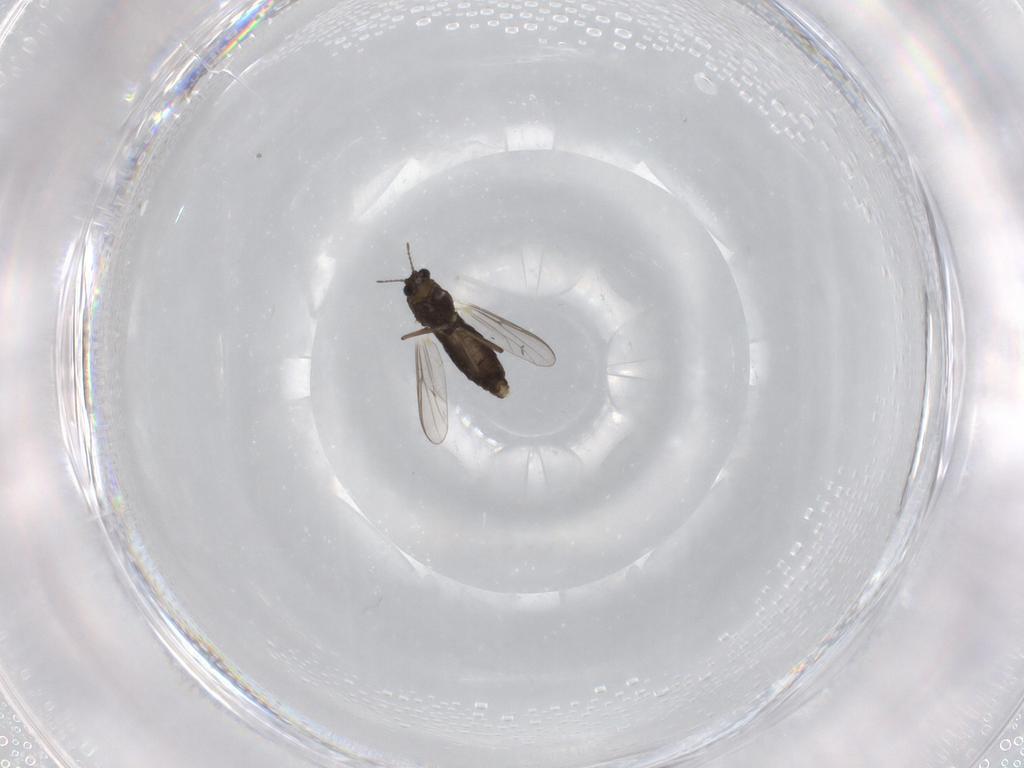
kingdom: Animalia
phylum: Arthropoda
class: Insecta
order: Diptera
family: Chironomidae
